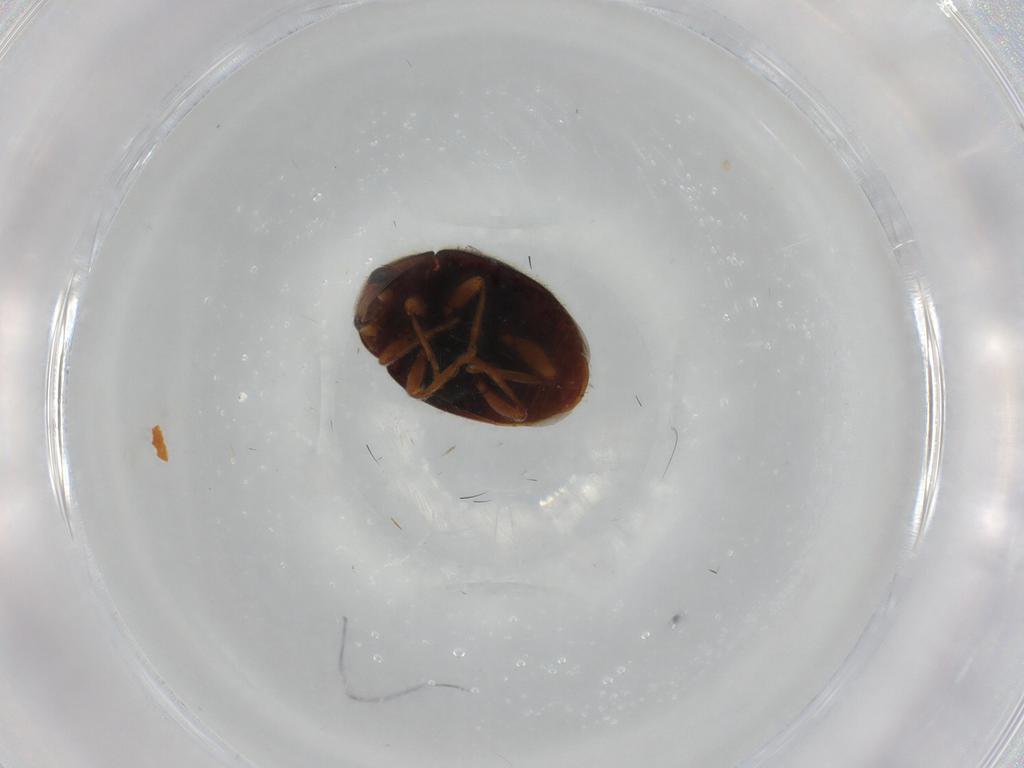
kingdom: Animalia
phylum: Arthropoda
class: Insecta
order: Coleoptera
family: Coccinellidae
